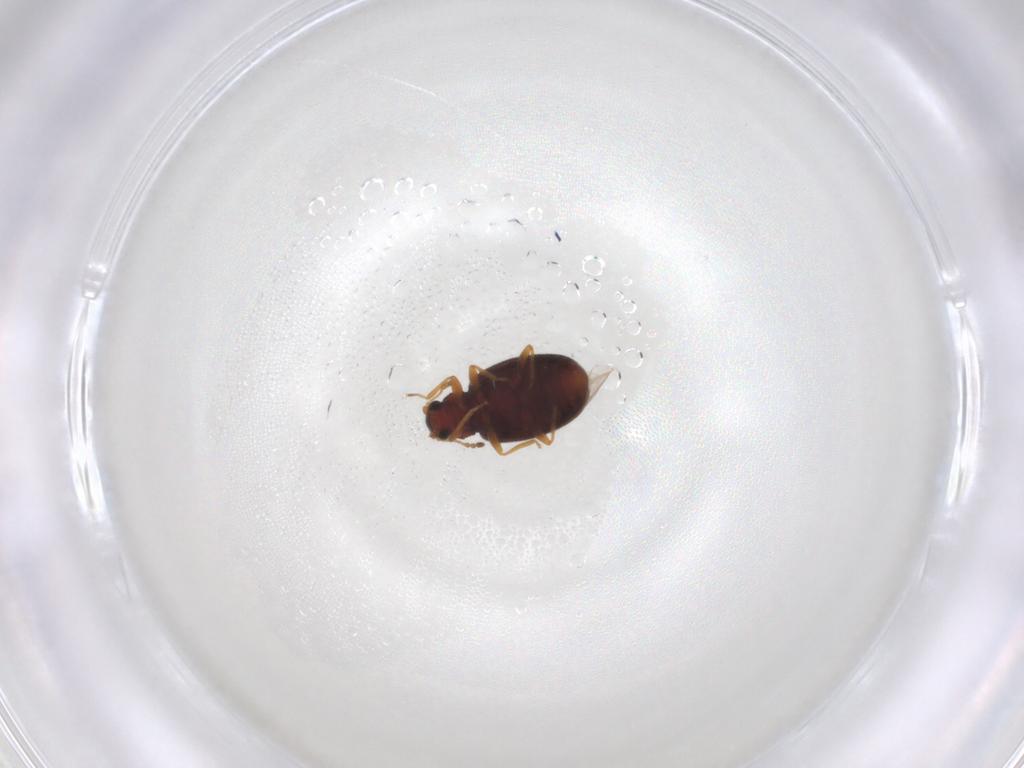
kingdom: Animalia
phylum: Arthropoda
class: Insecta
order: Coleoptera
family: Latridiidae
